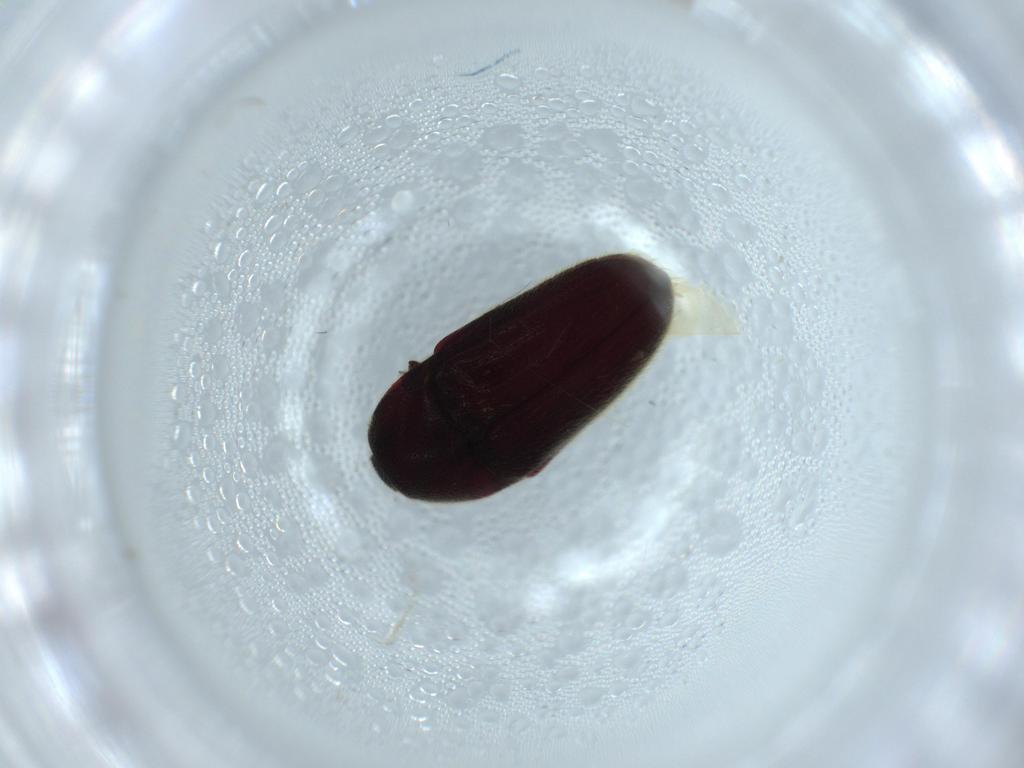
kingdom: Animalia
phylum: Arthropoda
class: Insecta
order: Coleoptera
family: Throscidae
